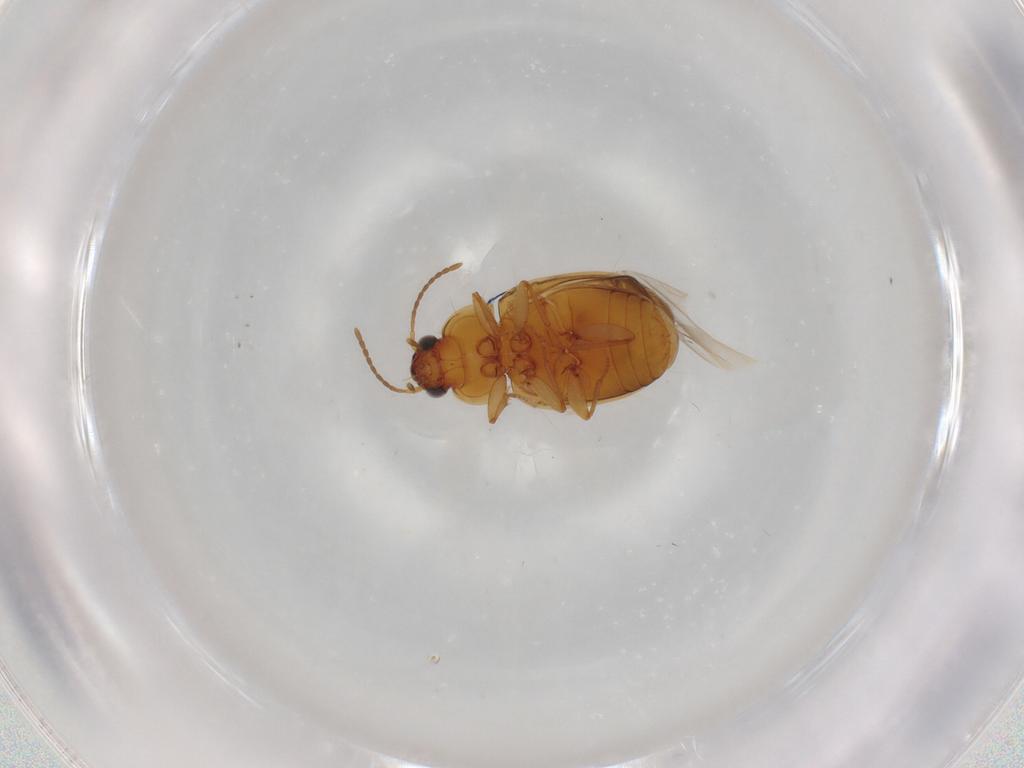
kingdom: Animalia
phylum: Arthropoda
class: Insecta
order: Coleoptera
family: Carabidae
